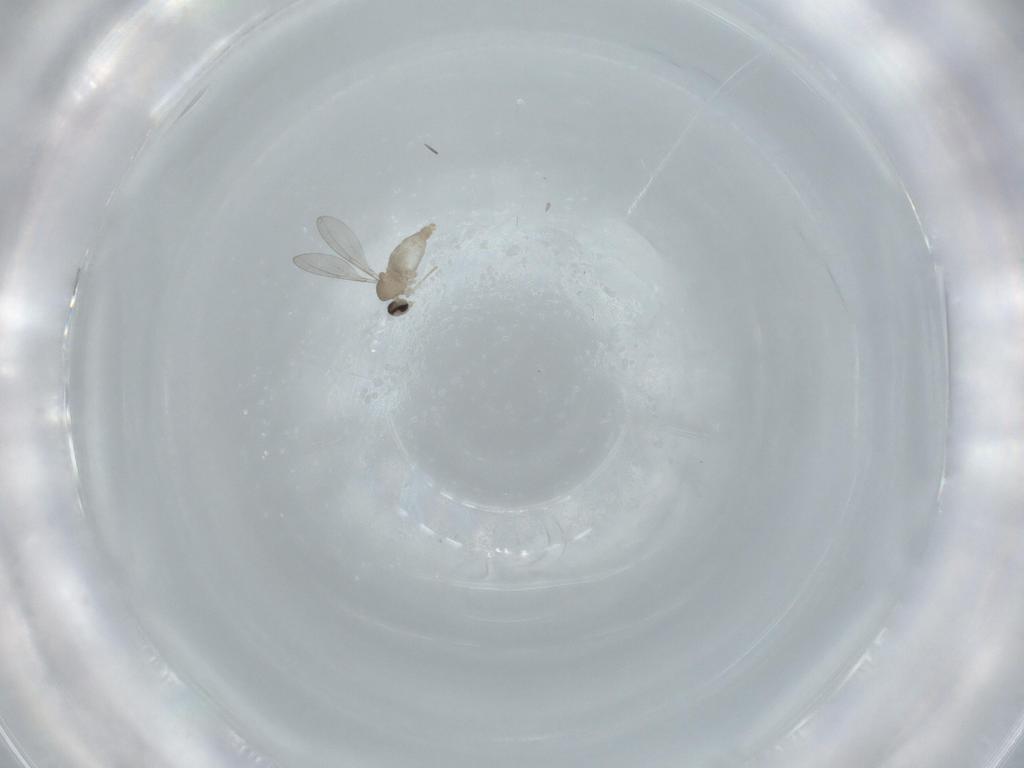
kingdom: Animalia
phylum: Arthropoda
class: Insecta
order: Diptera
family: Cecidomyiidae
